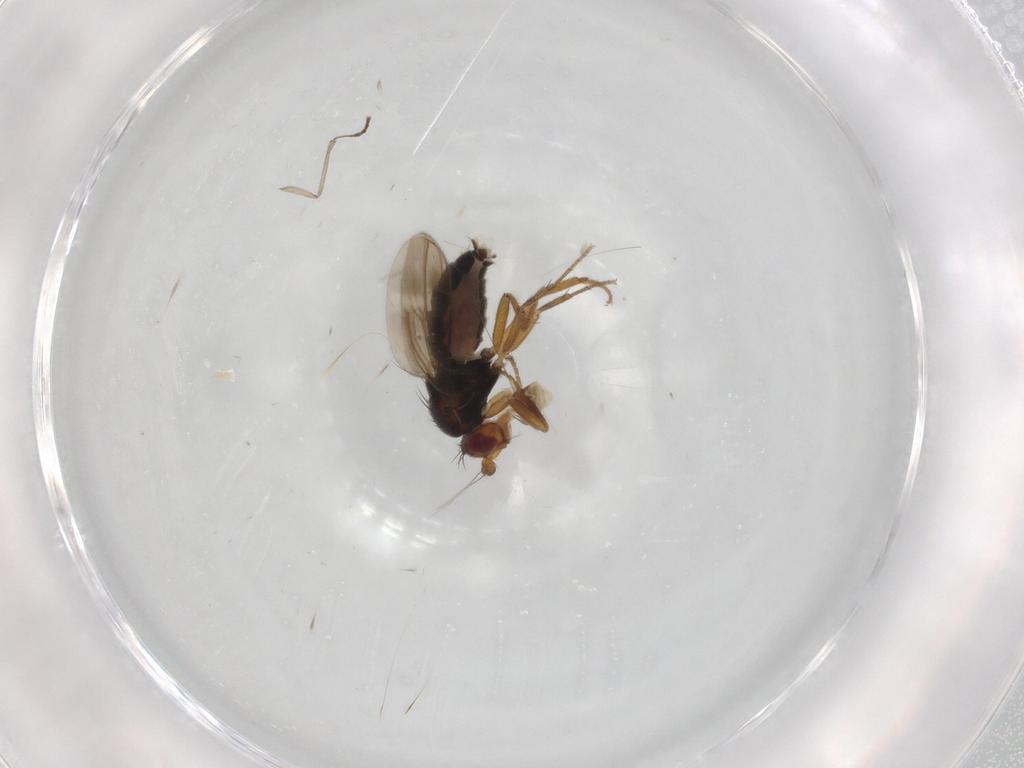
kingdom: Animalia
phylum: Arthropoda
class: Insecta
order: Diptera
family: Sphaeroceridae
